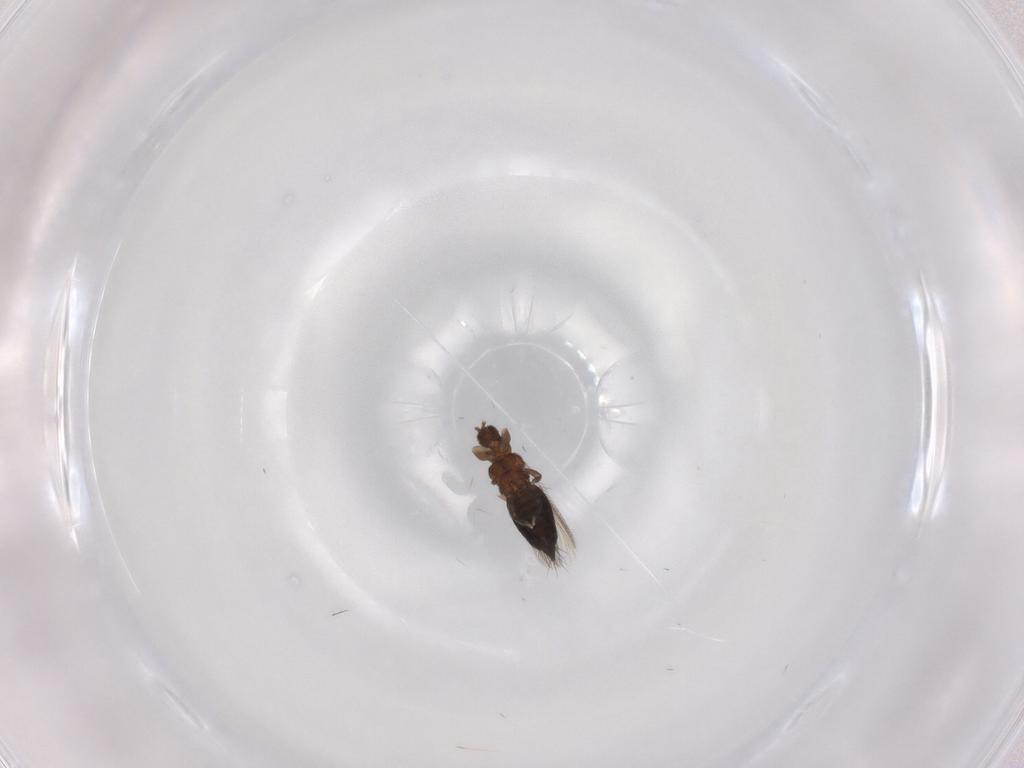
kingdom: Animalia
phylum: Arthropoda
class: Insecta
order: Thysanoptera
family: Thripidae
